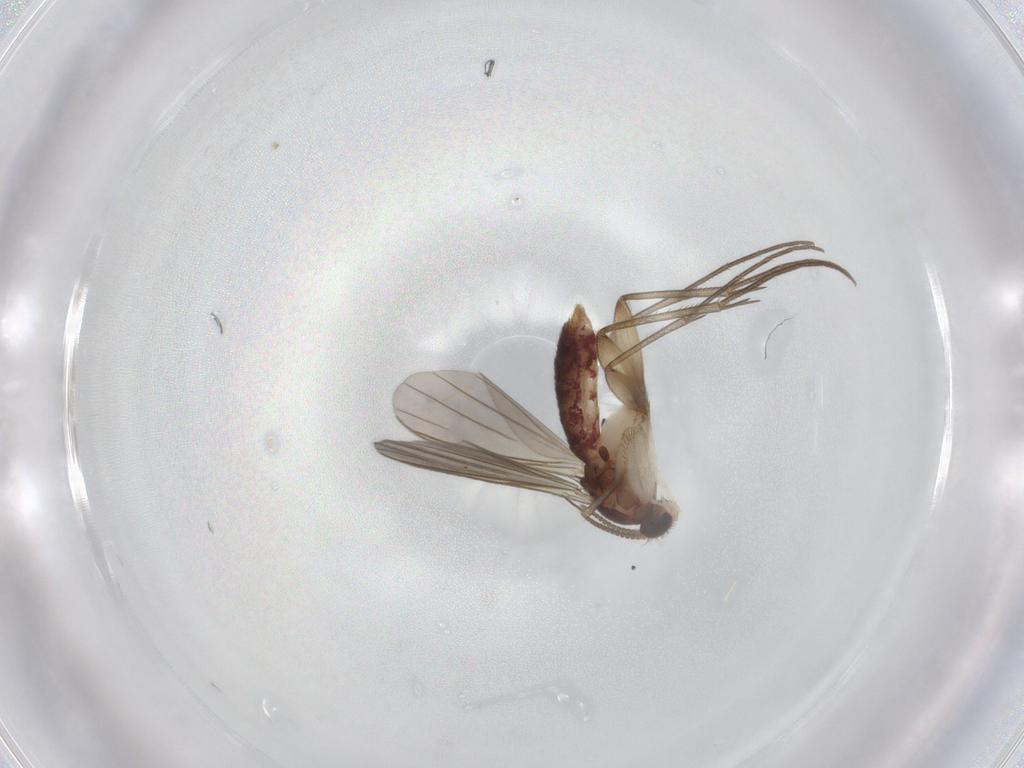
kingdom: Animalia
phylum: Arthropoda
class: Insecta
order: Diptera
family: Mycetophilidae
